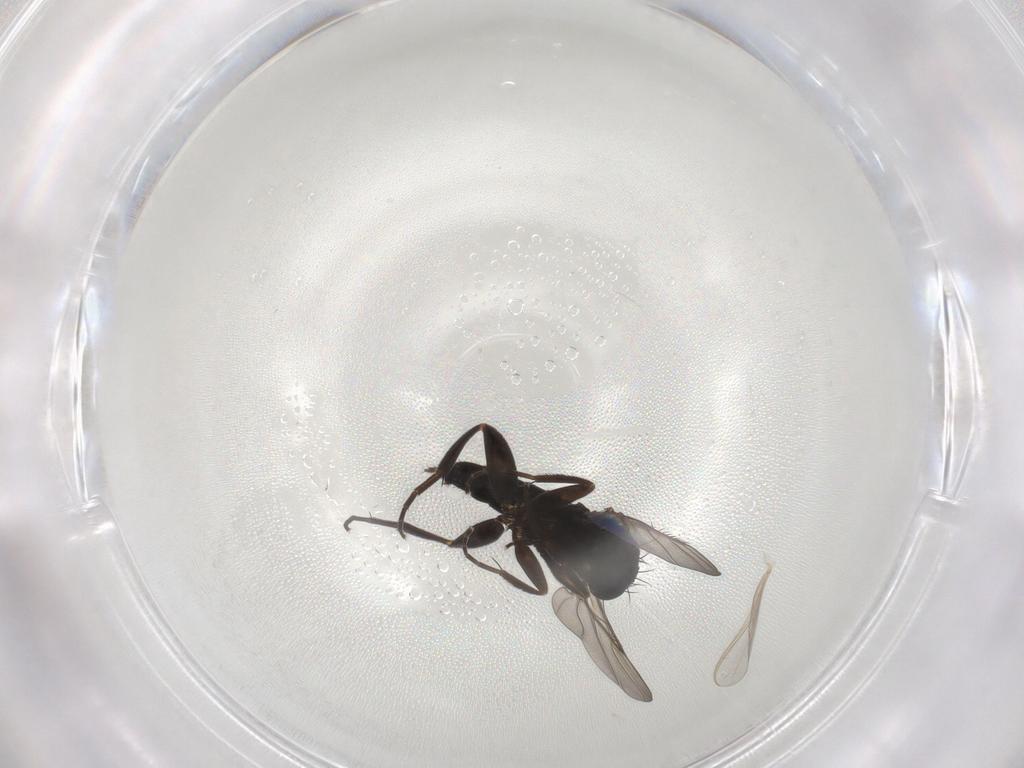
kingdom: Animalia
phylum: Arthropoda
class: Insecta
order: Diptera
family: Phoridae
